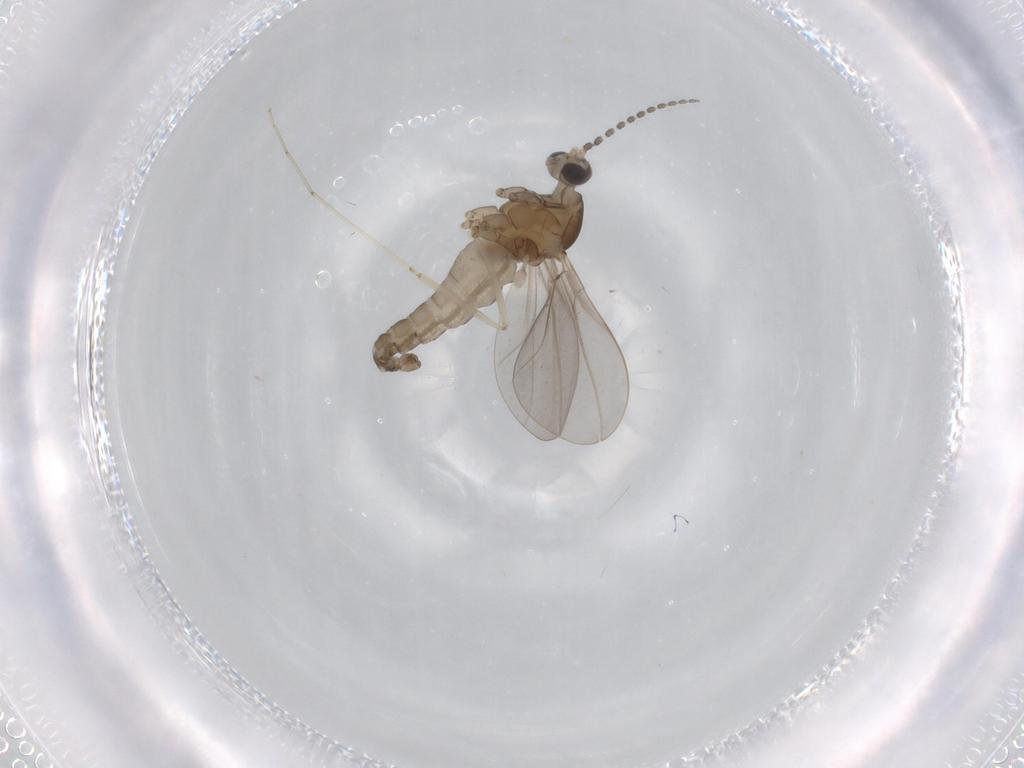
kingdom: Animalia
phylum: Arthropoda
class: Insecta
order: Diptera
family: Cecidomyiidae
